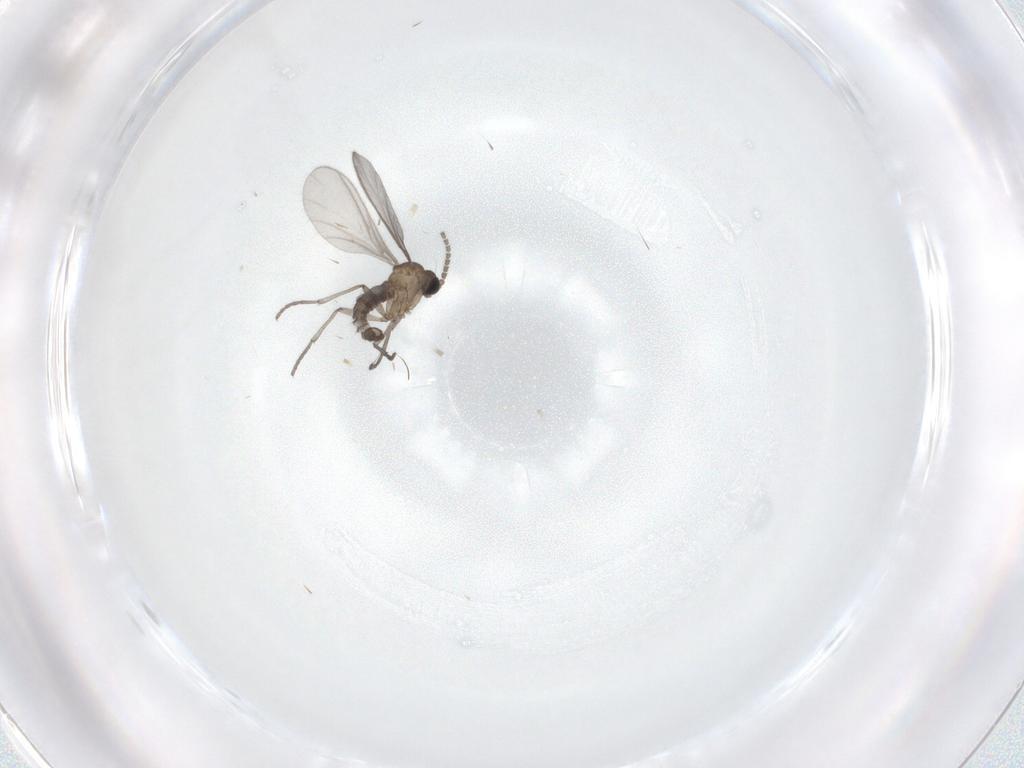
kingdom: Animalia
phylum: Arthropoda
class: Insecta
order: Diptera
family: Sciaridae
